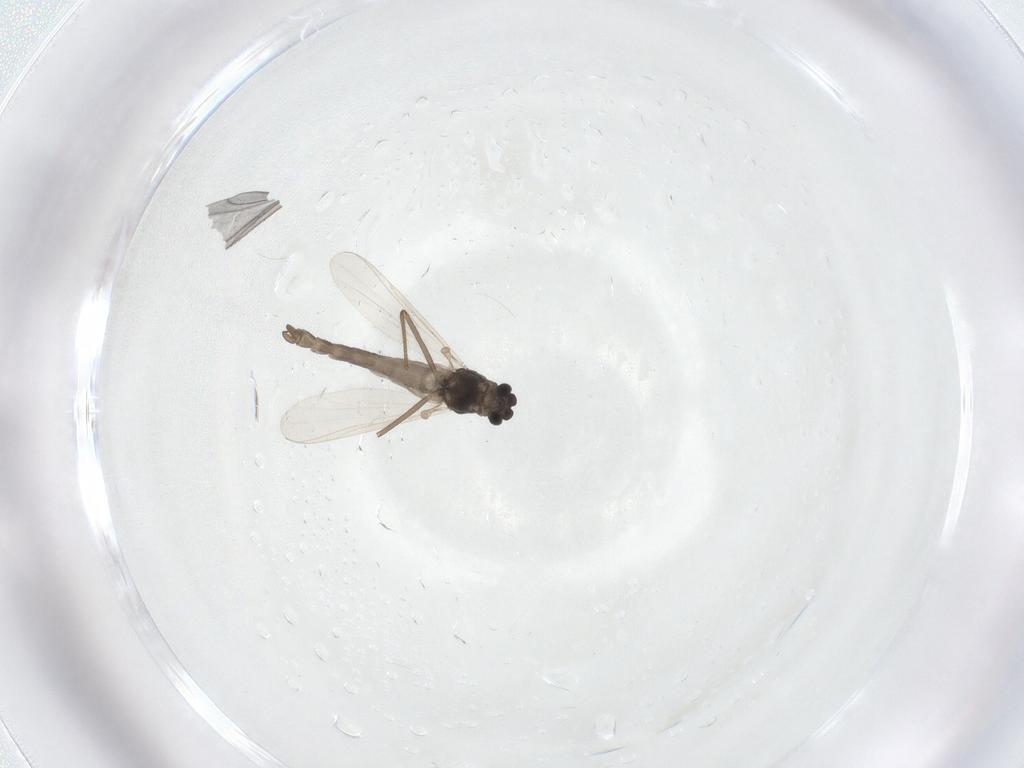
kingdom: Animalia
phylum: Arthropoda
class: Insecta
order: Diptera
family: Chironomidae
